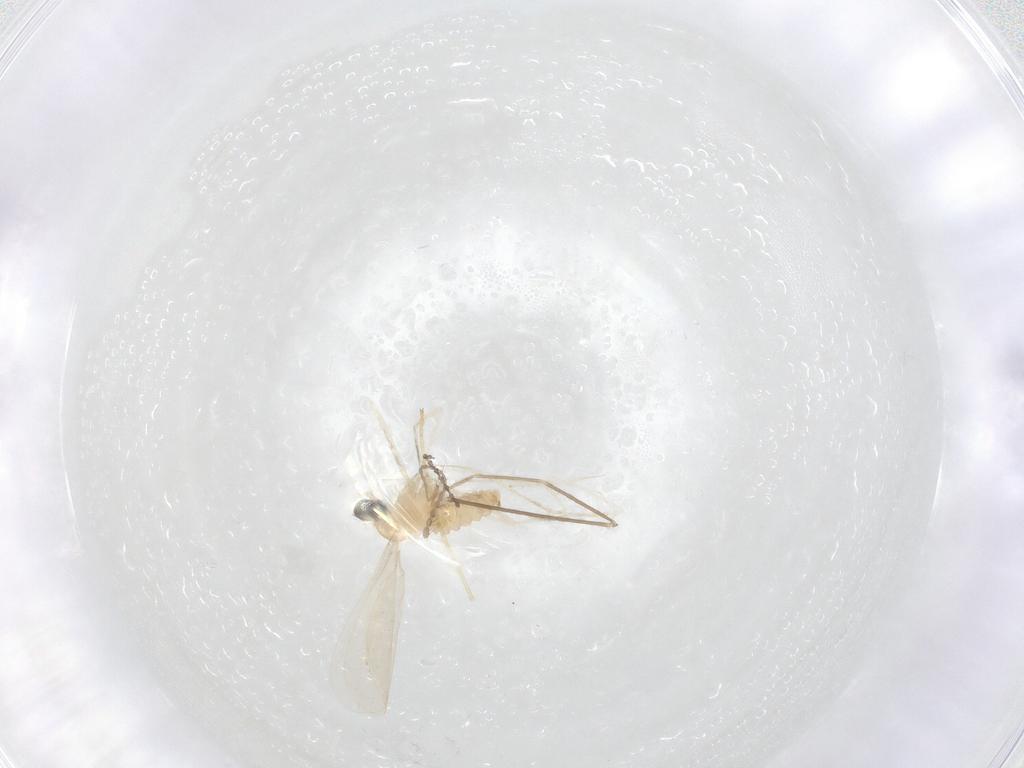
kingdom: Animalia
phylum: Arthropoda
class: Insecta
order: Diptera
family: Cecidomyiidae
